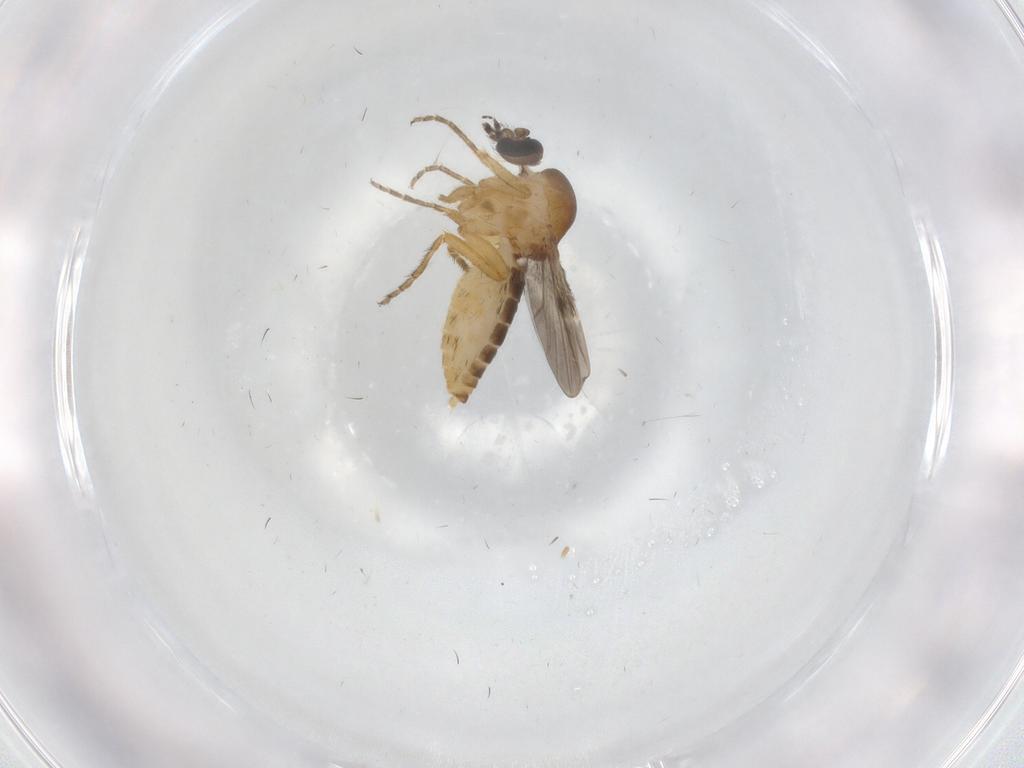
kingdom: Animalia
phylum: Arthropoda
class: Insecta
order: Diptera
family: Ceratopogonidae
